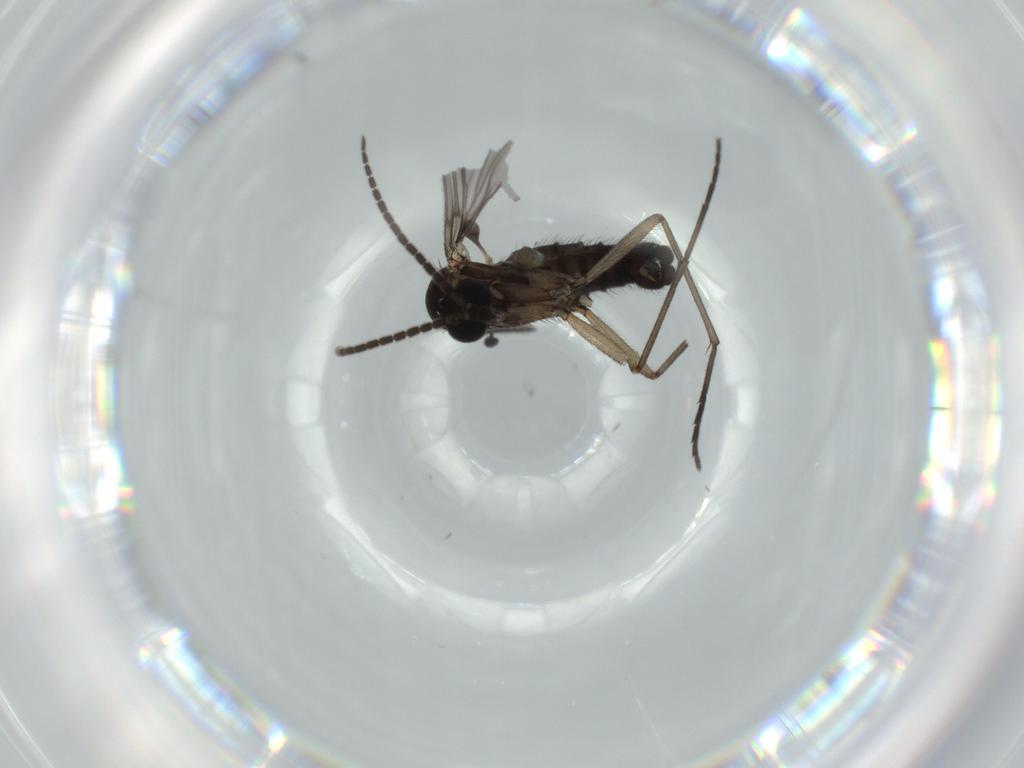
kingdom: Animalia
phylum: Arthropoda
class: Insecta
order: Diptera
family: Sciaridae
